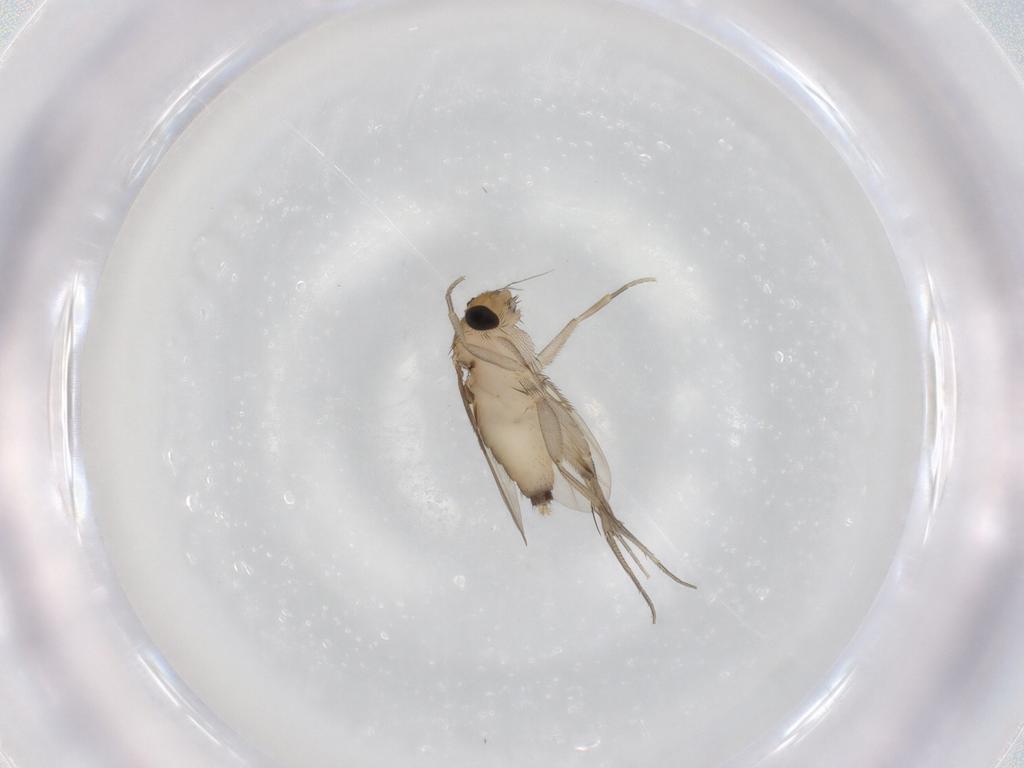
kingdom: Animalia
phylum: Arthropoda
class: Insecta
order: Diptera
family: Phoridae
